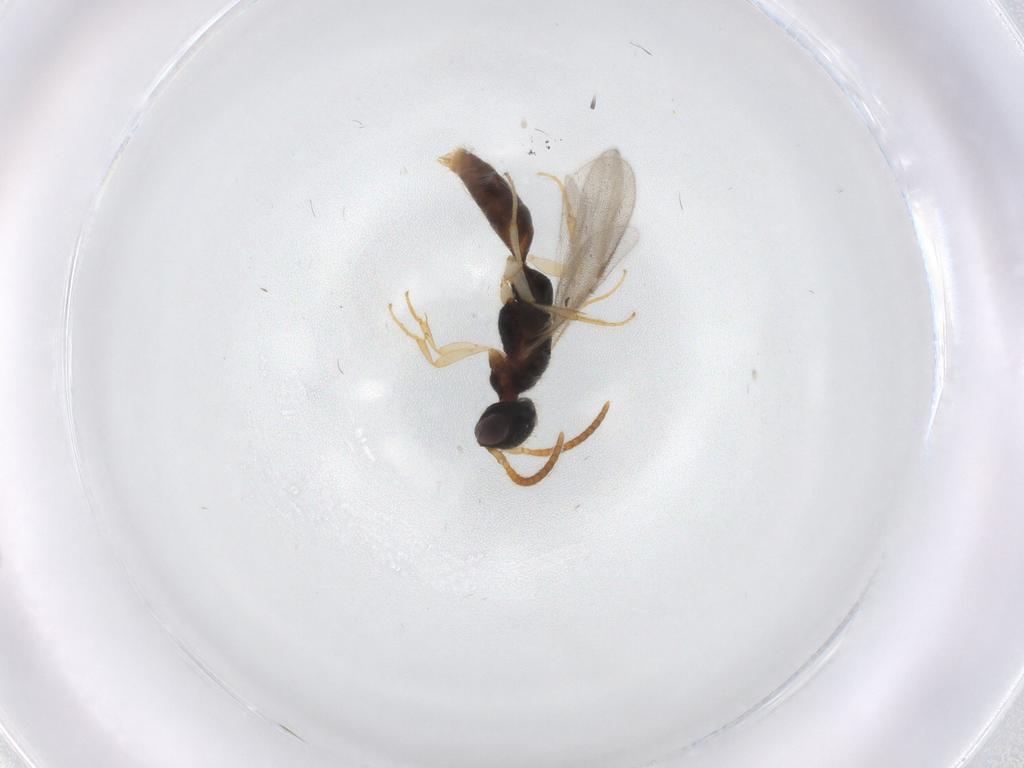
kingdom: Animalia
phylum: Arthropoda
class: Insecta
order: Hymenoptera
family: Bethylidae
